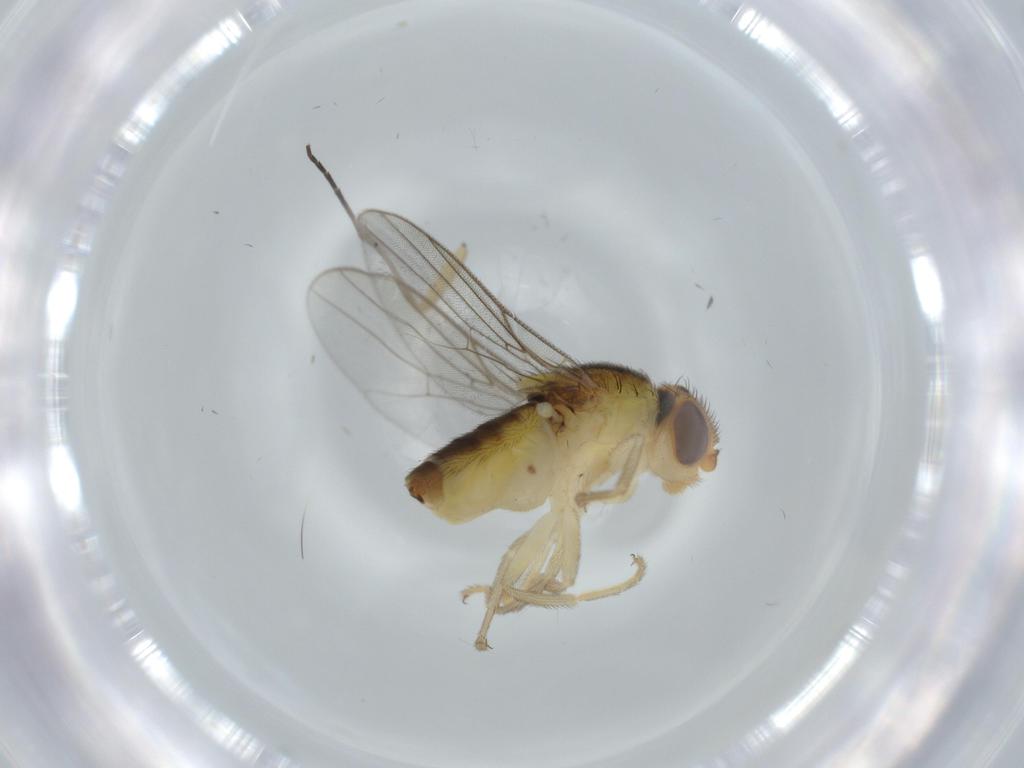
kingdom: Animalia
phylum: Arthropoda
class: Insecta
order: Diptera
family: Chloropidae
